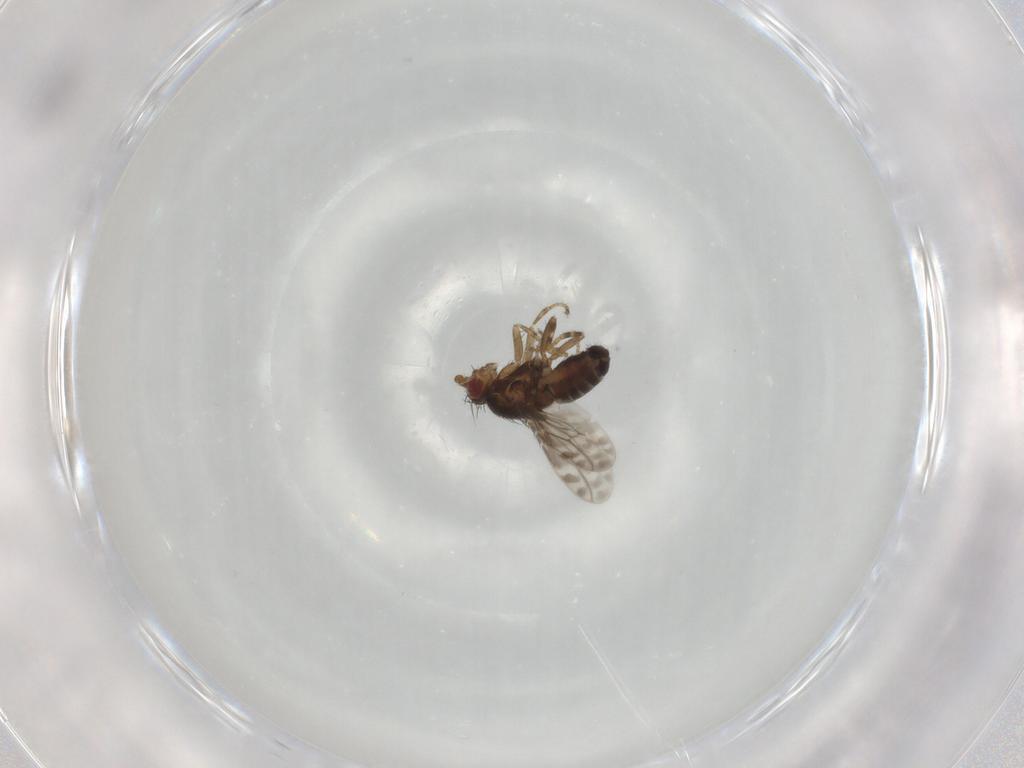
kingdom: Animalia
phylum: Arthropoda
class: Insecta
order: Diptera
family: Sphaeroceridae
